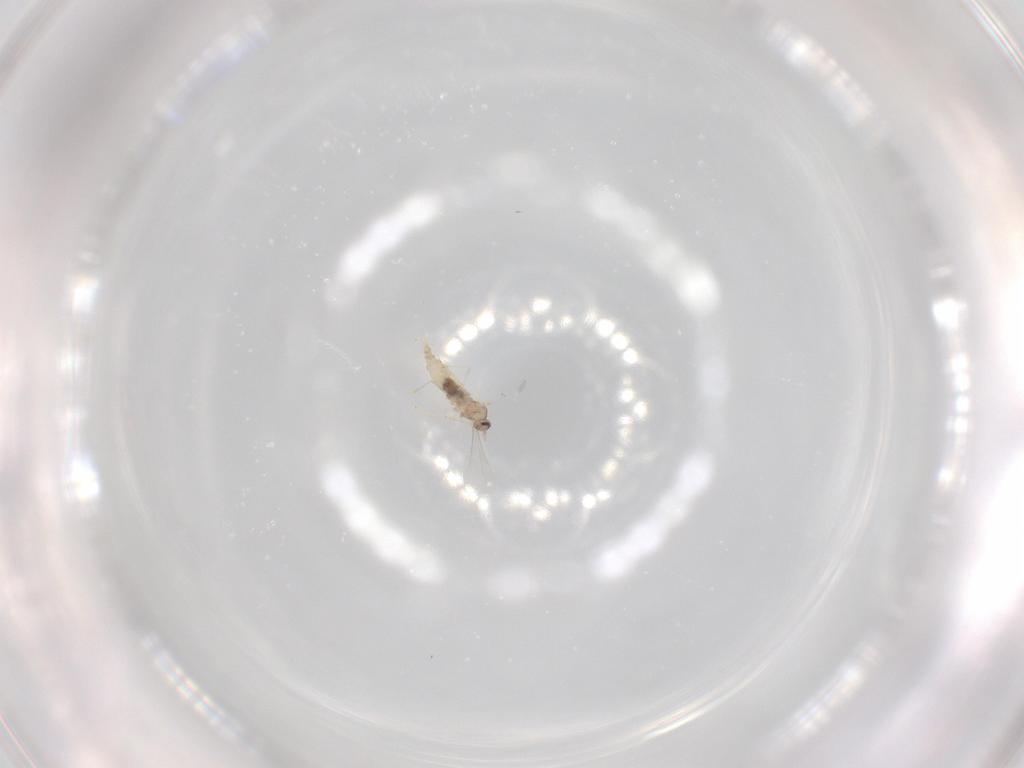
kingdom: Animalia
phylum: Arthropoda
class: Insecta
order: Diptera
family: Cecidomyiidae
